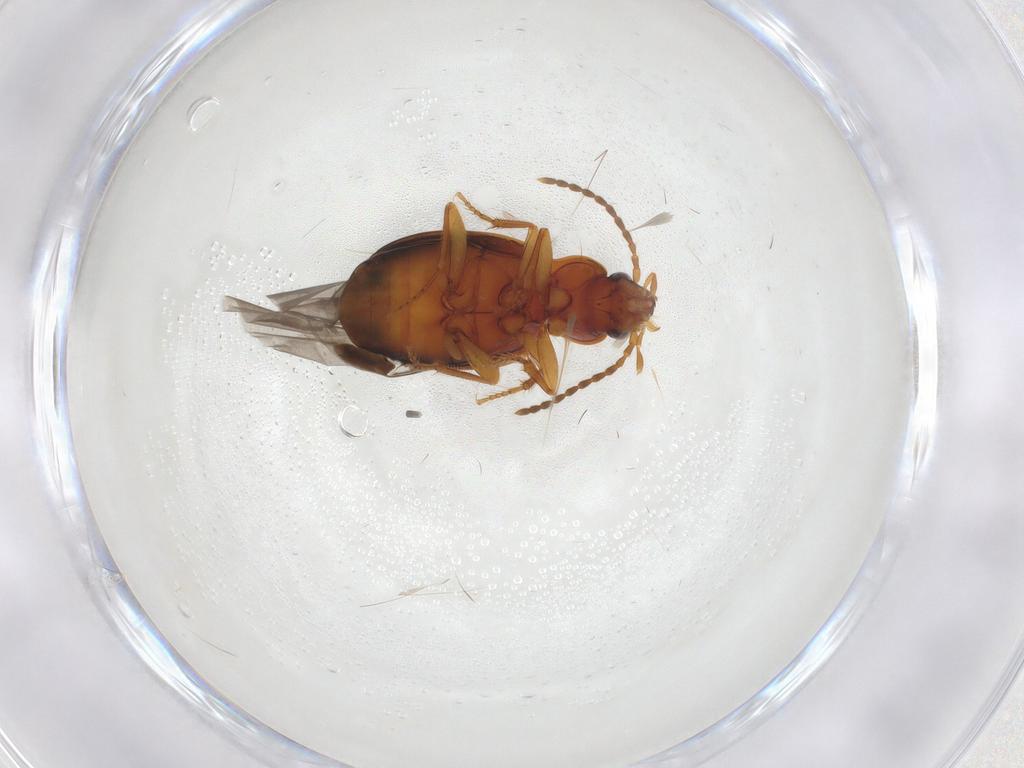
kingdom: Animalia
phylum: Arthropoda
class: Insecta
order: Coleoptera
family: Carabidae
